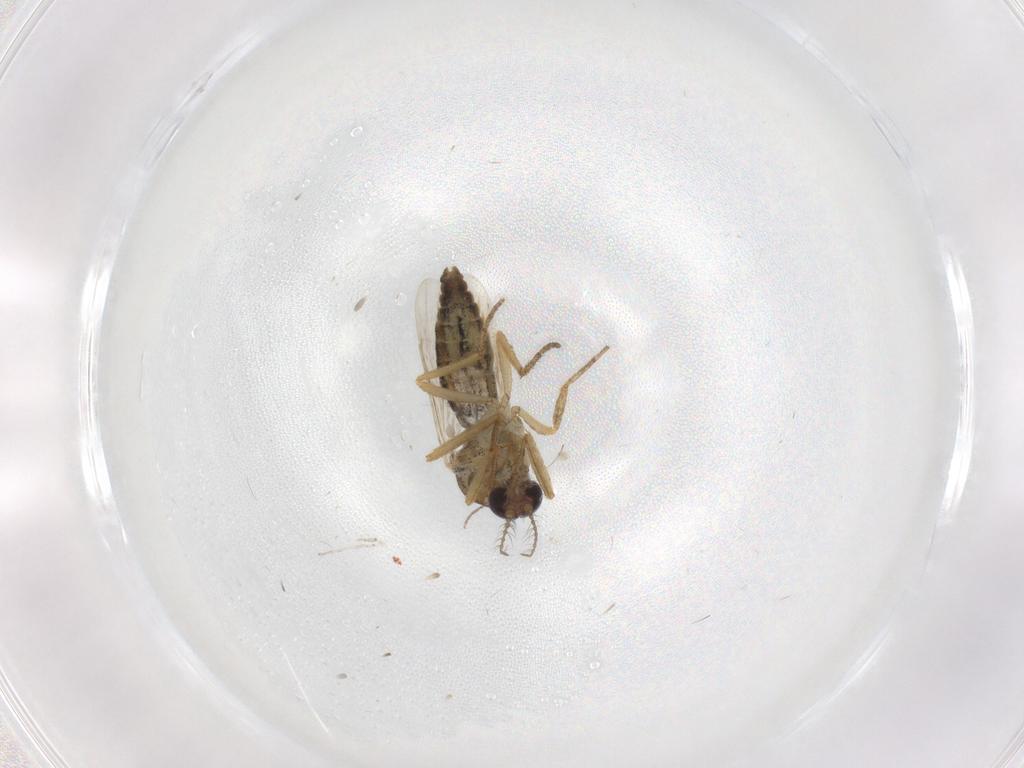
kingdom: Animalia
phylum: Arthropoda
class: Insecta
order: Diptera
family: Ceratopogonidae
